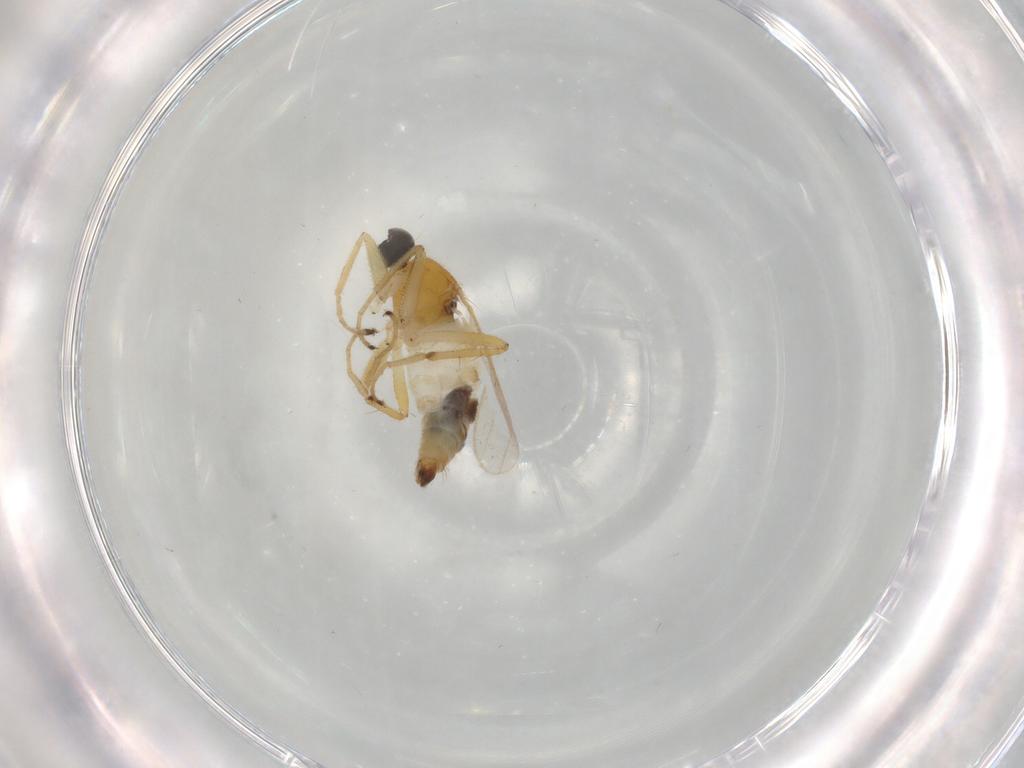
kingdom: Animalia
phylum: Arthropoda
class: Insecta
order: Diptera
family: Hybotidae
